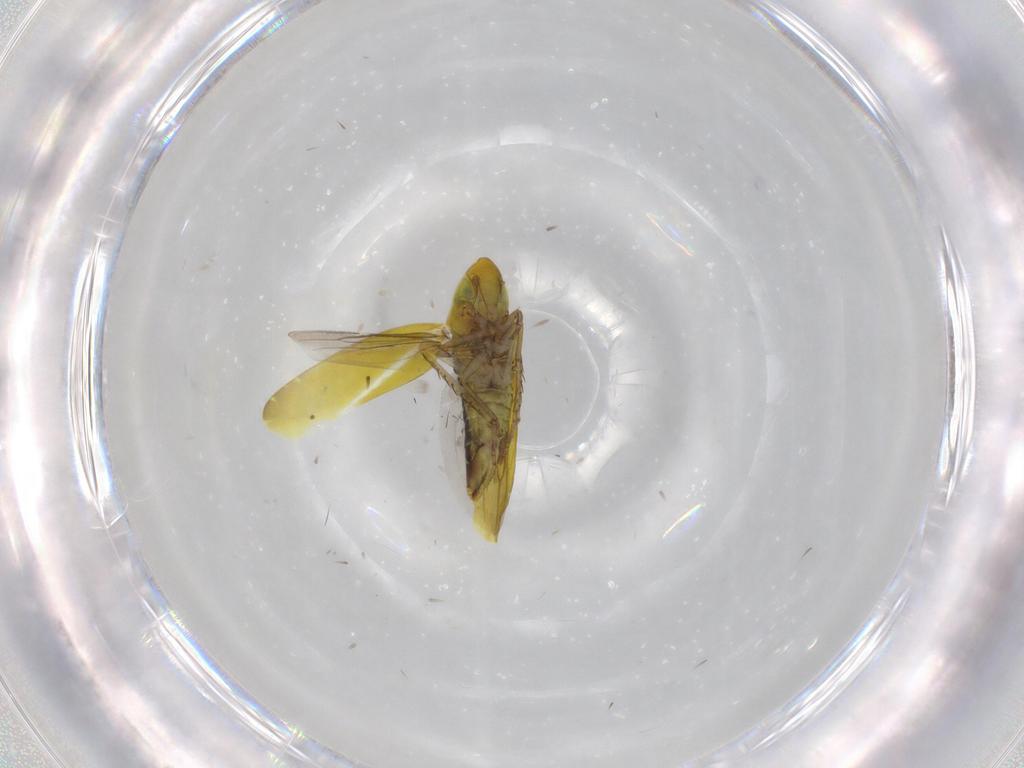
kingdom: Animalia
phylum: Arthropoda
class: Insecta
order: Hemiptera
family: Cicadellidae
